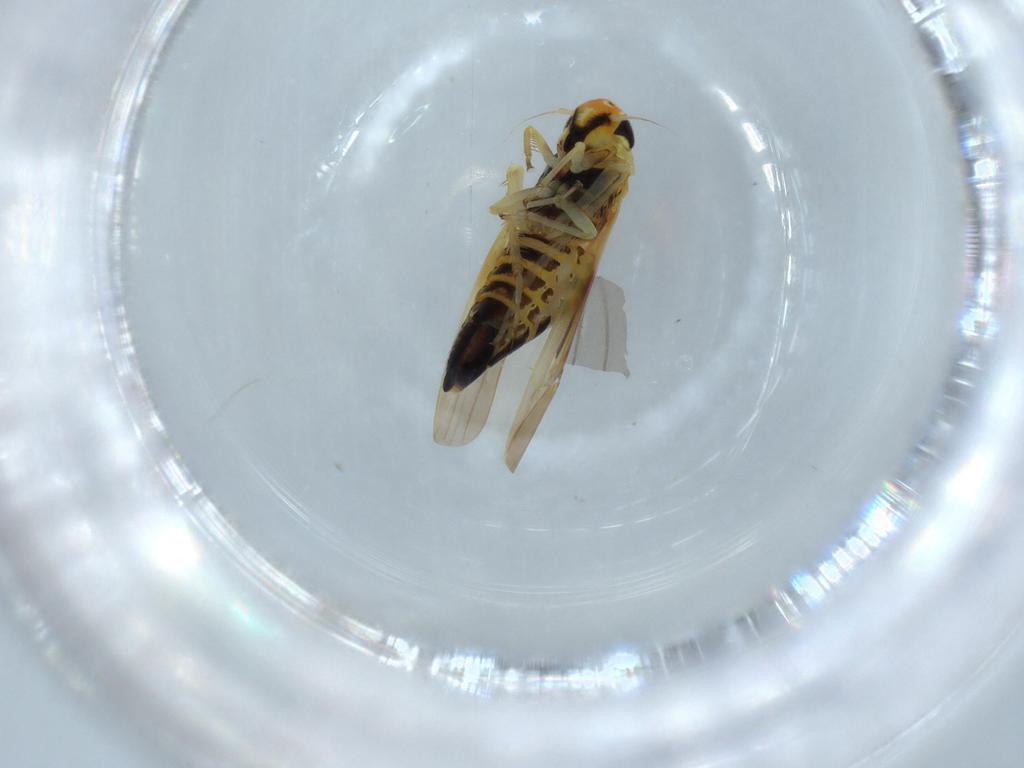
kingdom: Animalia
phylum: Arthropoda
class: Insecta
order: Hemiptera
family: Cicadellidae
